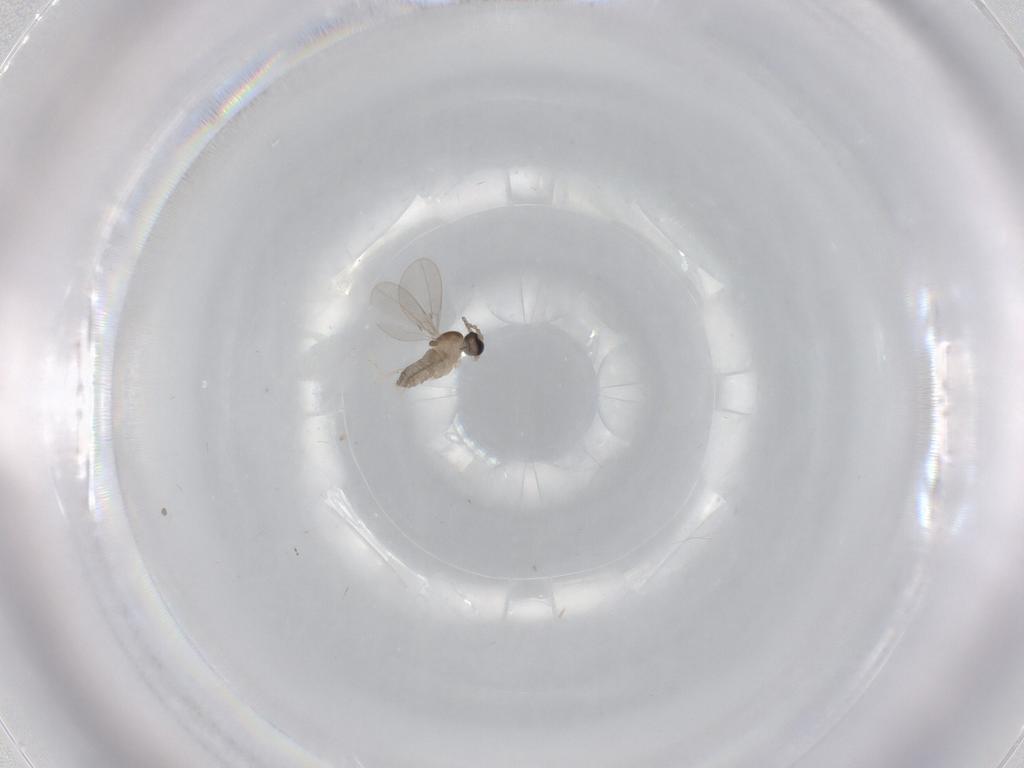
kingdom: Animalia
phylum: Arthropoda
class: Insecta
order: Diptera
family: Cecidomyiidae
